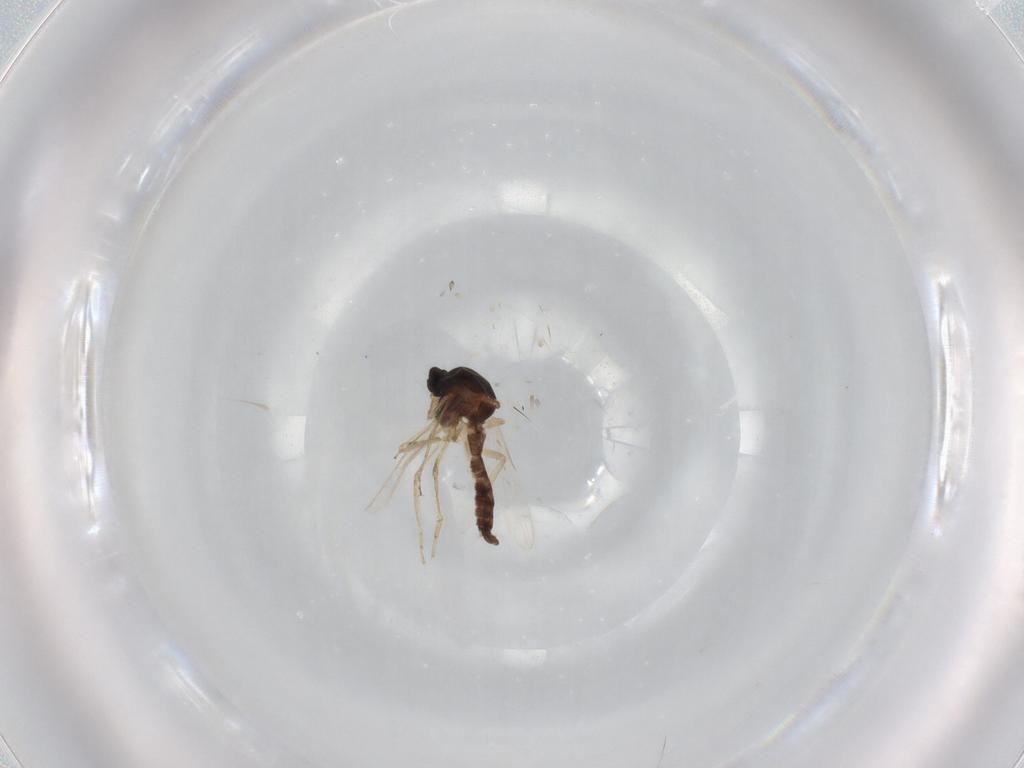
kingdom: Animalia
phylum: Arthropoda
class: Insecta
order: Diptera
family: Ceratopogonidae
